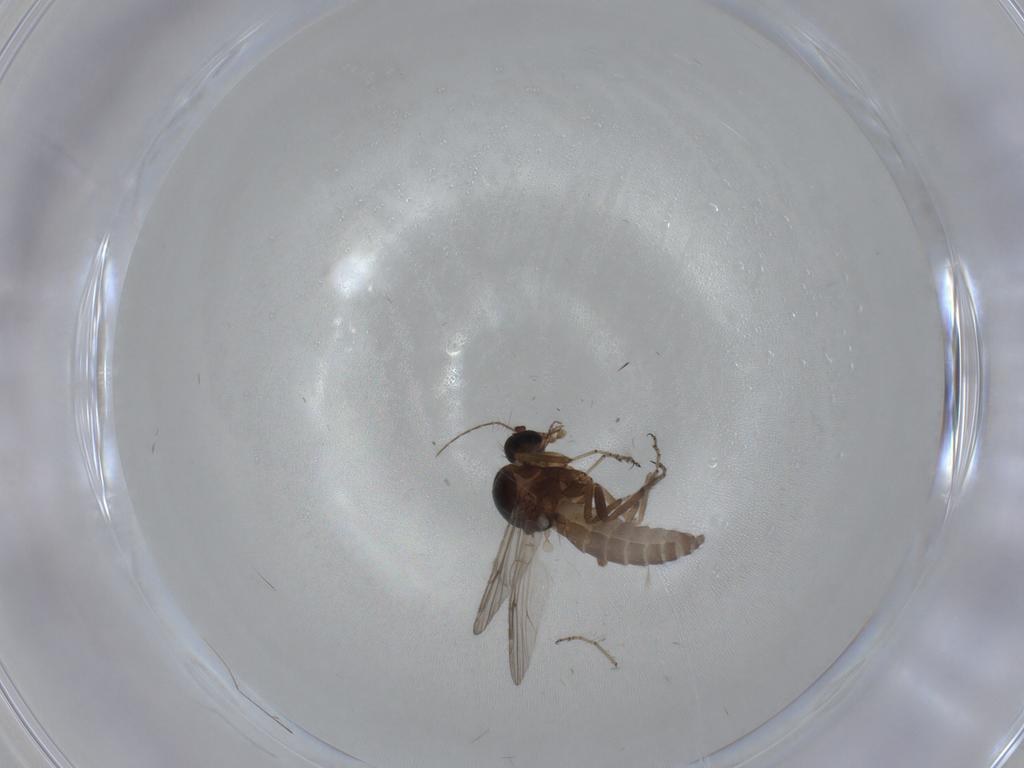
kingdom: Animalia
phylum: Arthropoda
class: Insecta
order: Diptera
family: Ceratopogonidae
